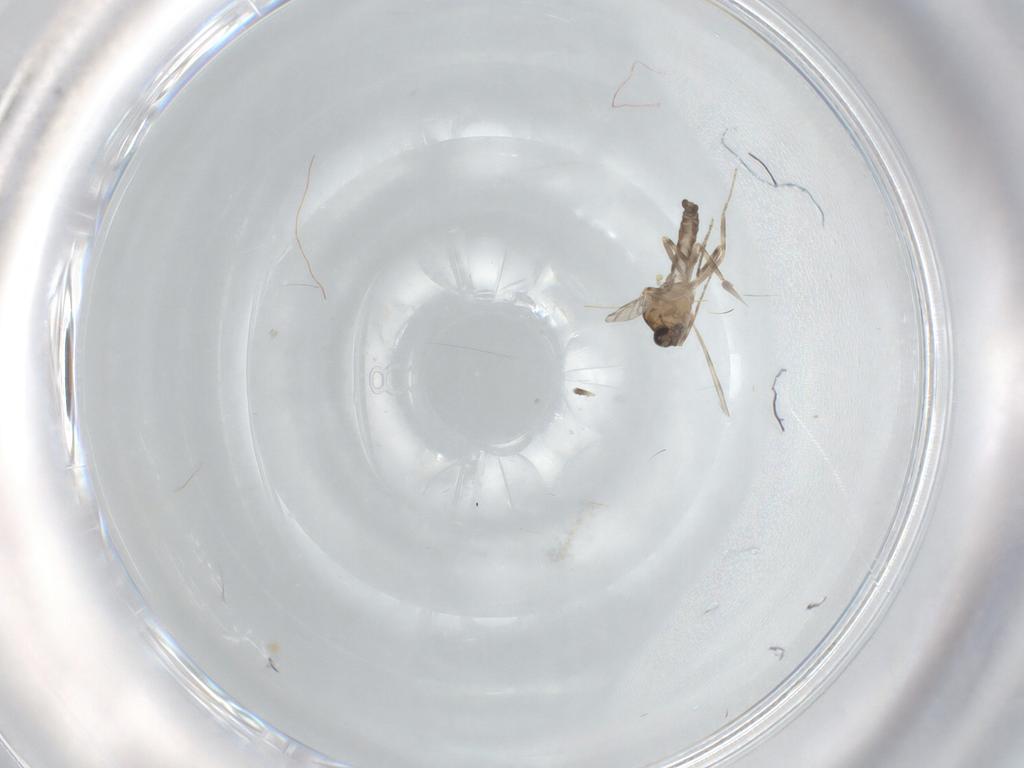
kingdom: Animalia
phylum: Arthropoda
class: Insecta
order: Diptera
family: Ceratopogonidae
